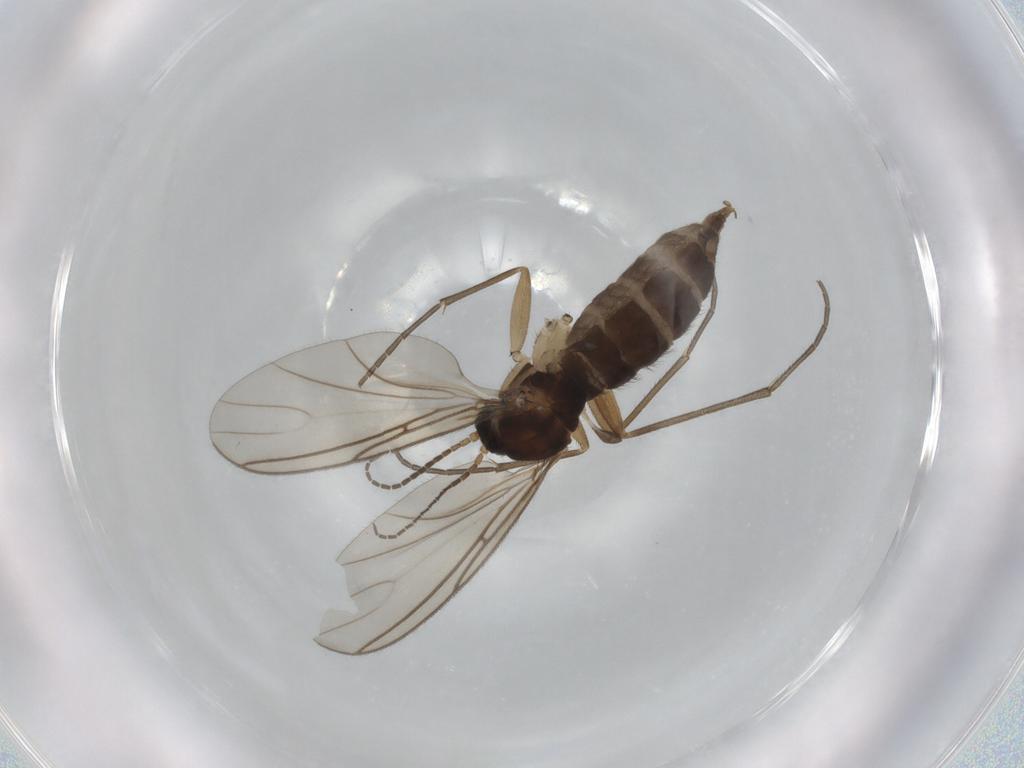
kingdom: Animalia
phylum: Arthropoda
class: Insecta
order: Diptera
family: Sciaridae
